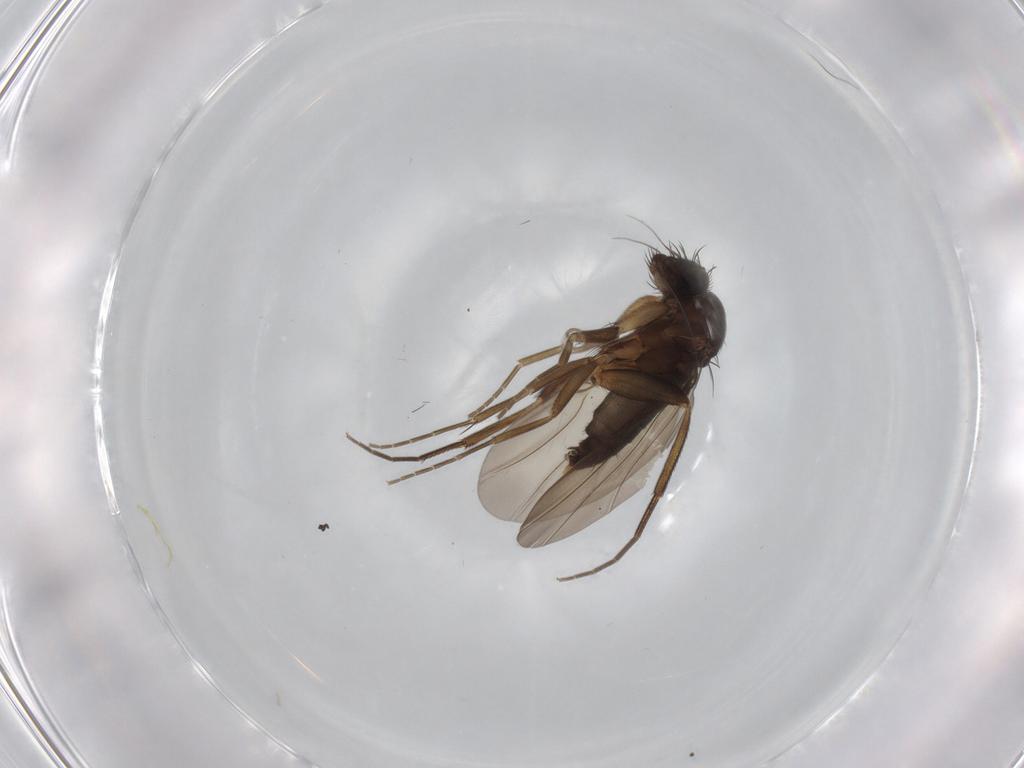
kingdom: Animalia
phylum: Arthropoda
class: Insecta
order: Diptera
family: Phoridae
